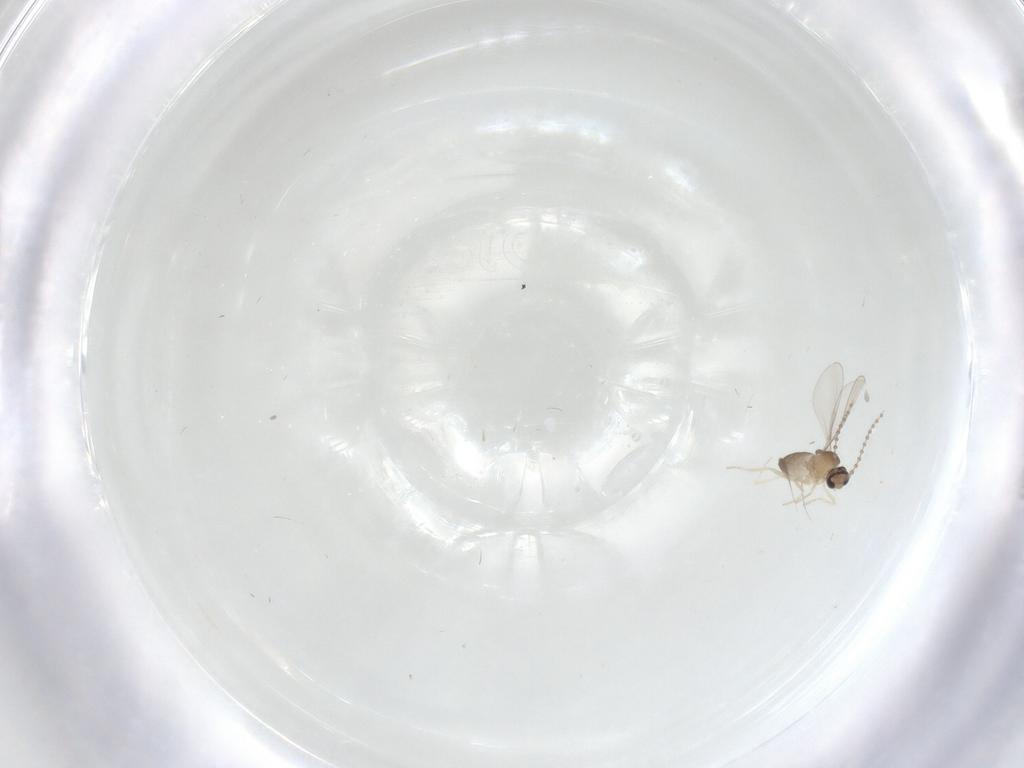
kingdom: Animalia
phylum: Arthropoda
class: Insecta
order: Diptera
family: Cecidomyiidae
